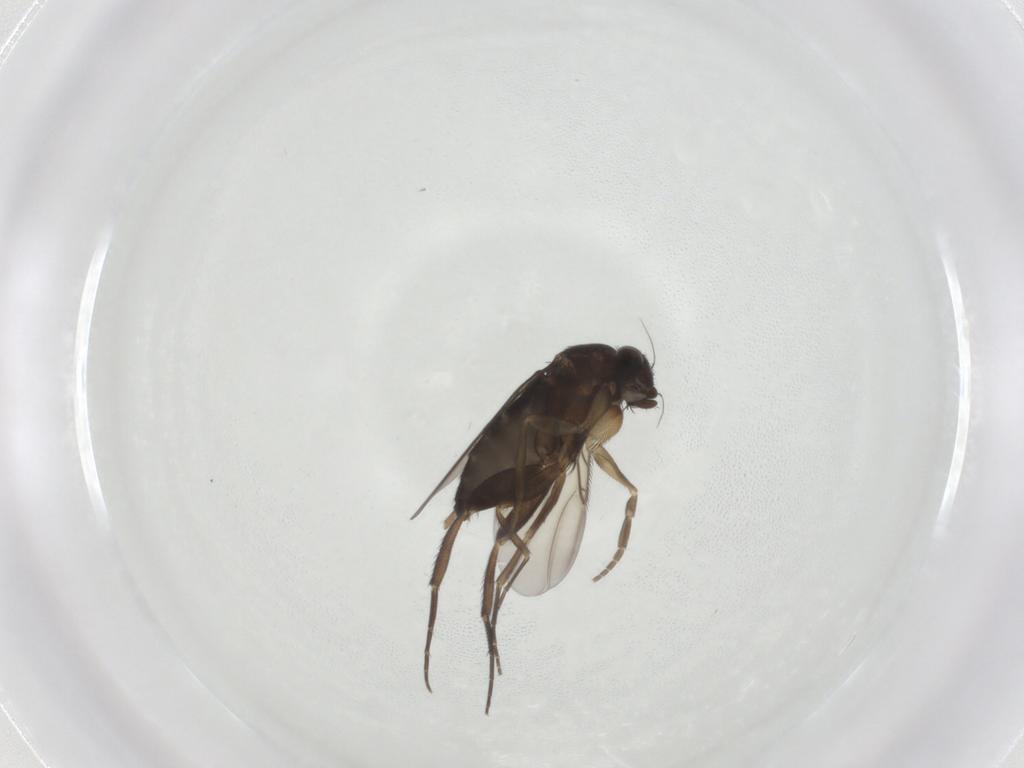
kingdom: Animalia
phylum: Arthropoda
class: Insecta
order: Diptera
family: Phoridae
